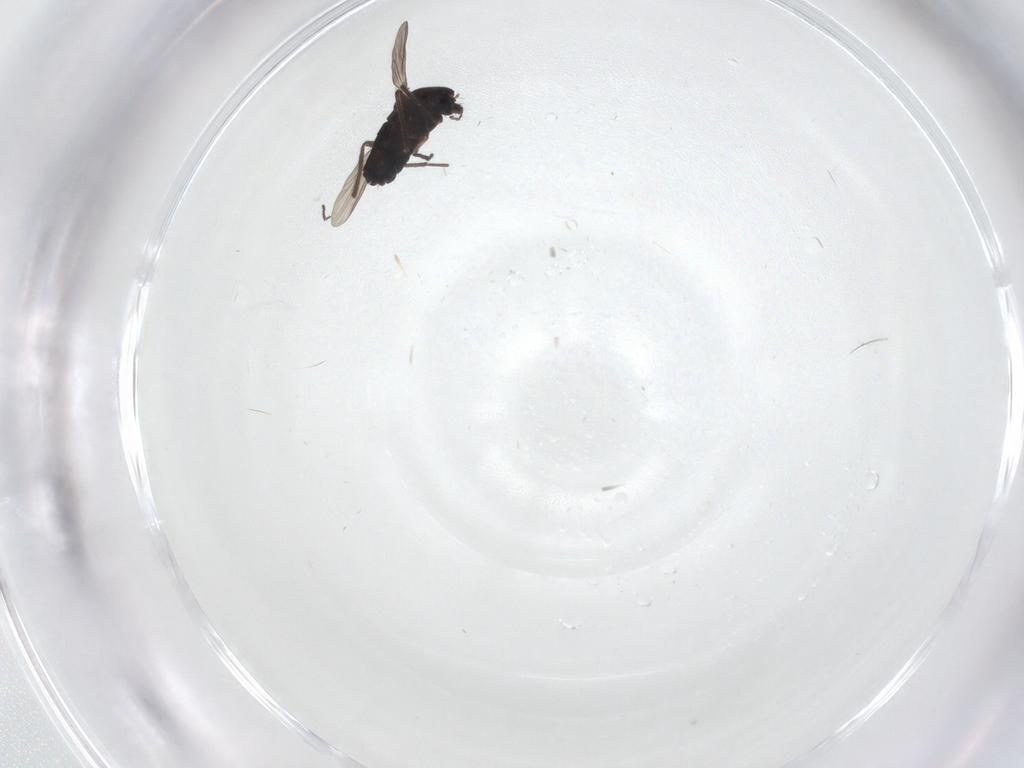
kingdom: Animalia
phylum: Arthropoda
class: Insecta
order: Diptera
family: Chironomidae
